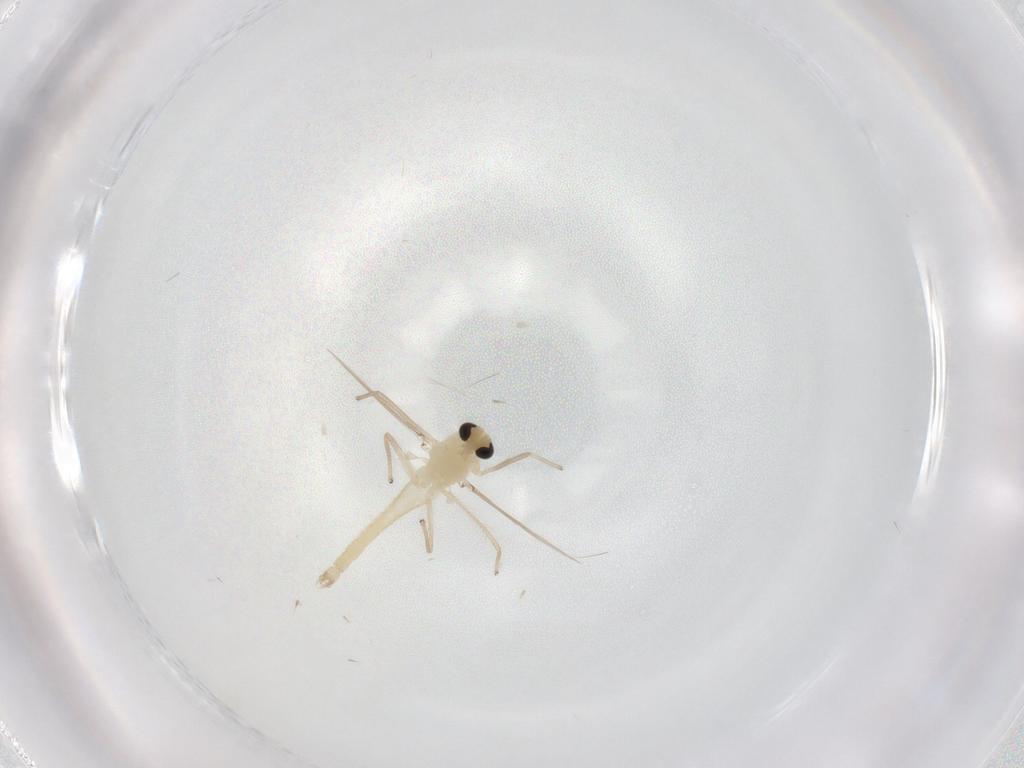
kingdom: Animalia
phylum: Arthropoda
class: Insecta
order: Diptera
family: Chironomidae
